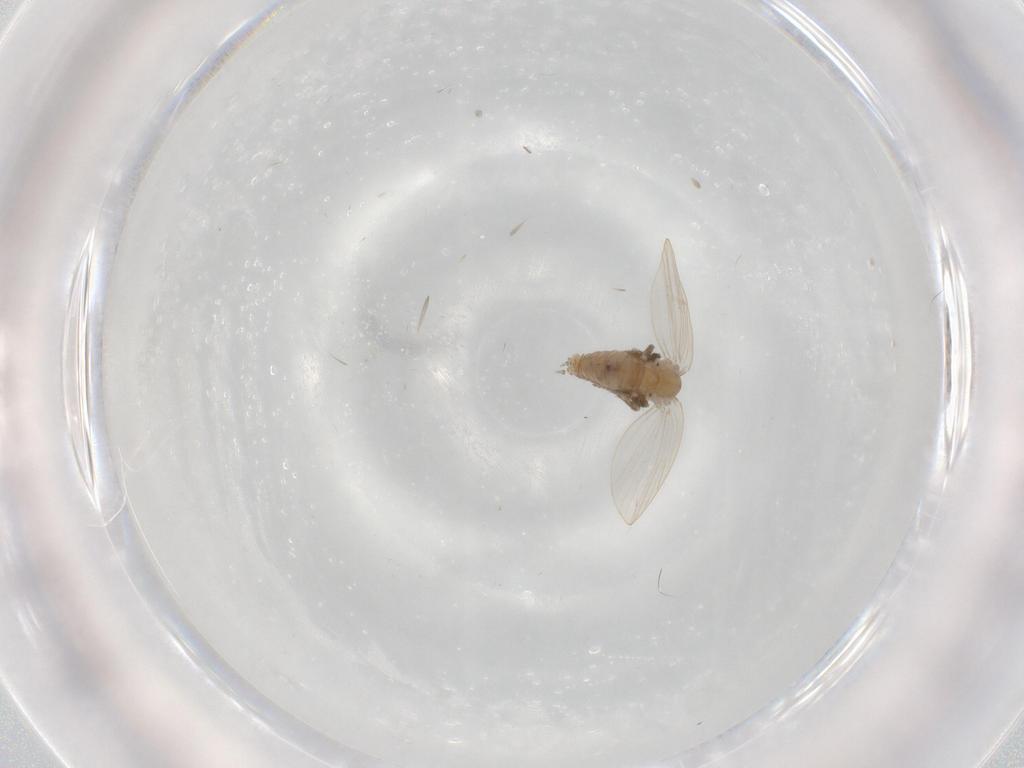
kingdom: Animalia
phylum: Arthropoda
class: Insecta
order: Diptera
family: Psychodidae
